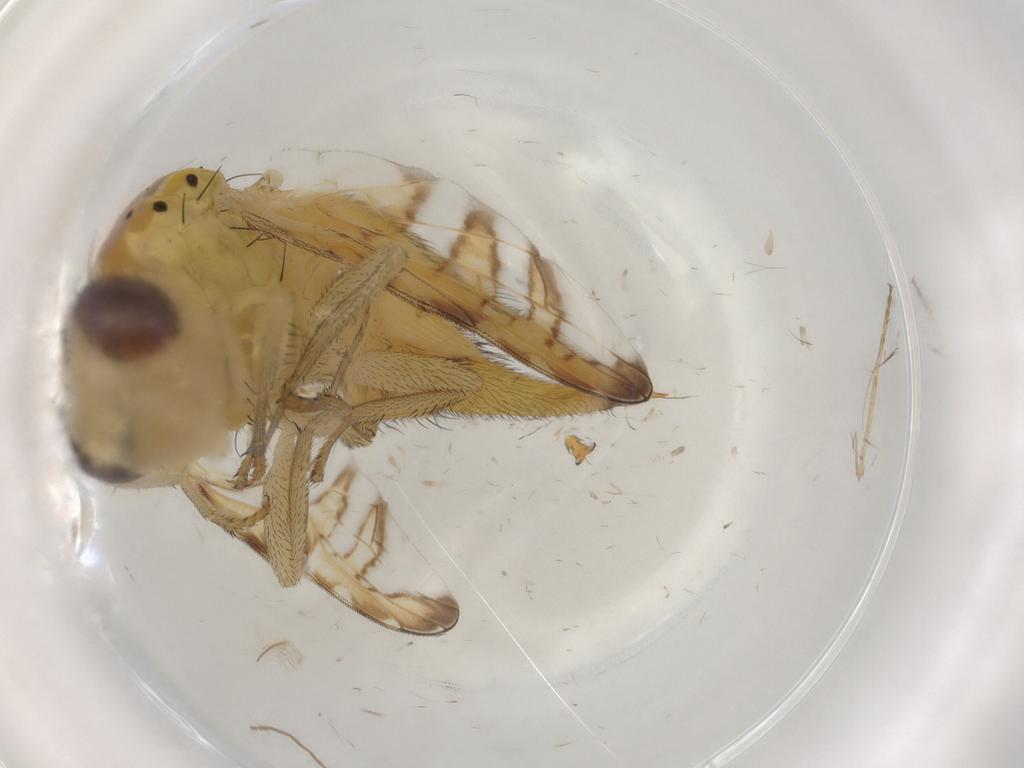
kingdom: Animalia
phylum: Arthropoda
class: Insecta
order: Diptera
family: Tephritidae
